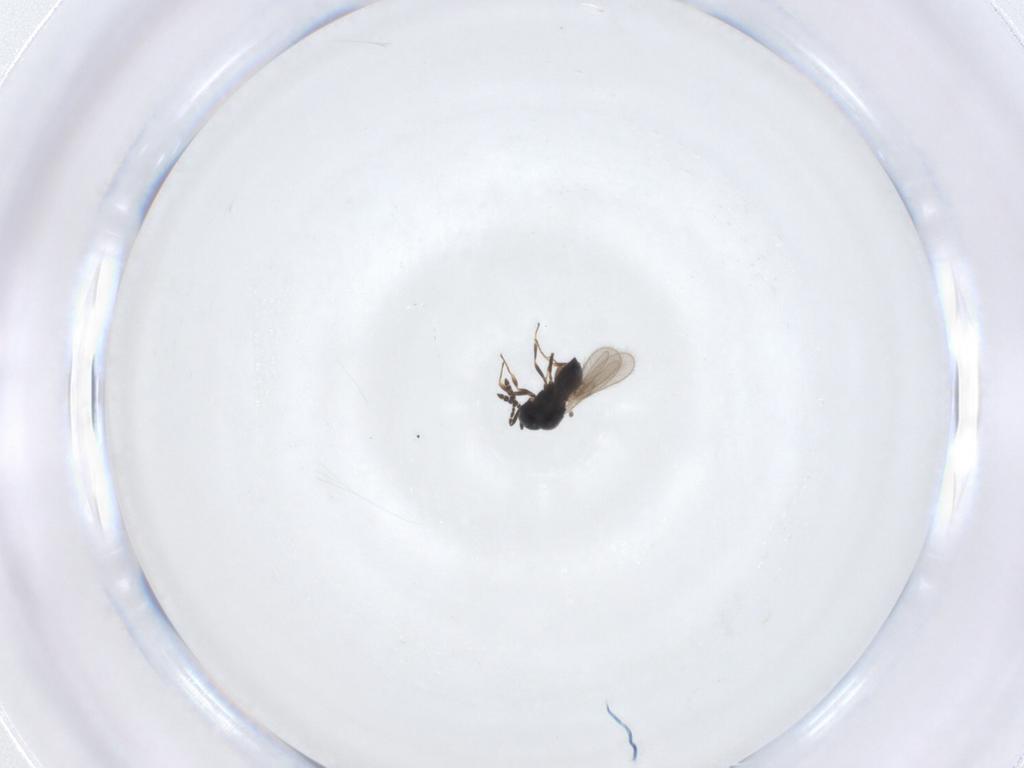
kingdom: Animalia
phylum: Arthropoda
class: Insecta
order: Hymenoptera
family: Scelionidae
